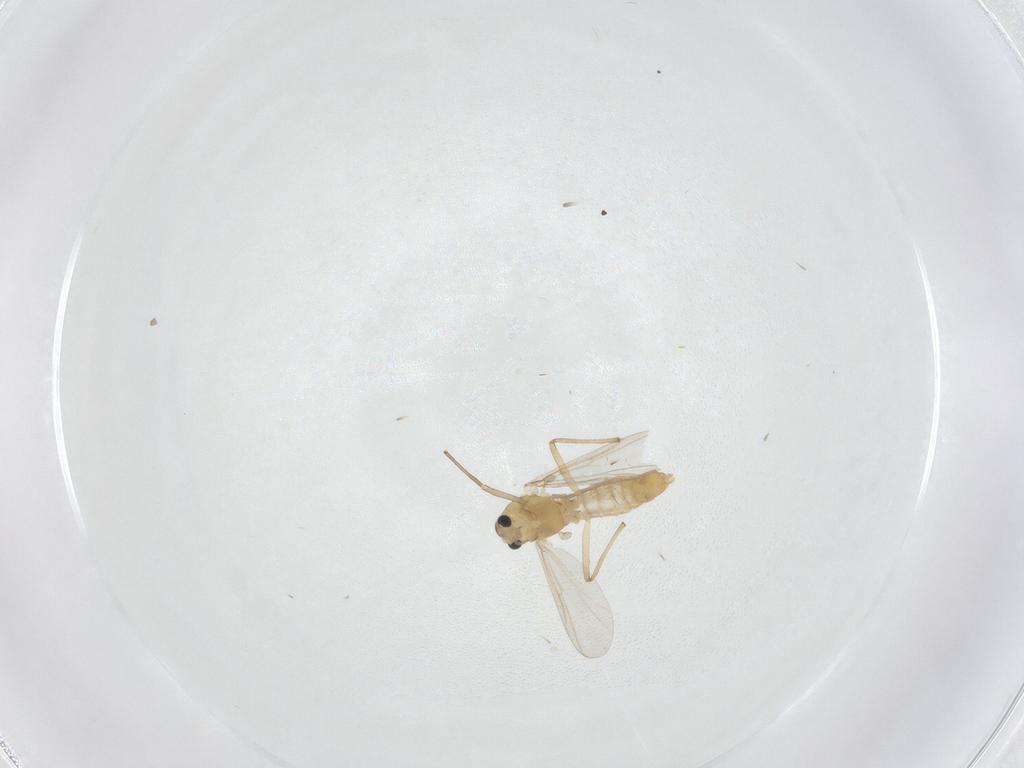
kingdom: Animalia
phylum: Arthropoda
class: Insecta
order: Diptera
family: Chironomidae
